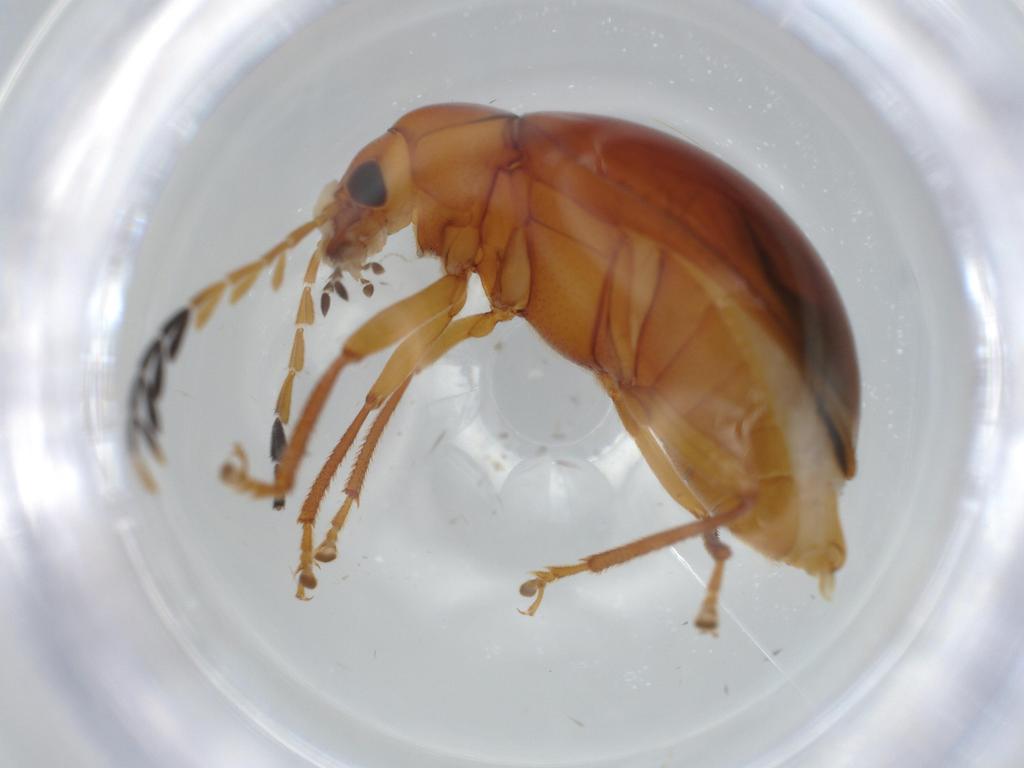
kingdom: Animalia
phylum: Arthropoda
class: Insecta
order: Coleoptera
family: Ptilodactylidae
